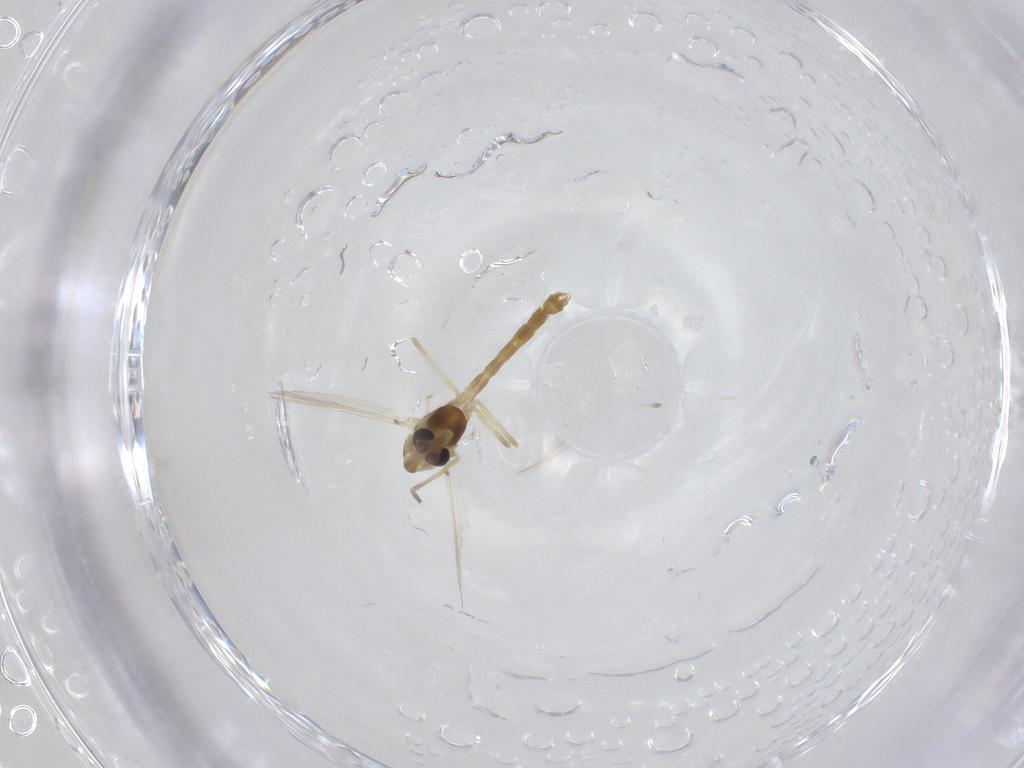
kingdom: Animalia
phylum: Arthropoda
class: Insecta
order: Diptera
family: Chironomidae
